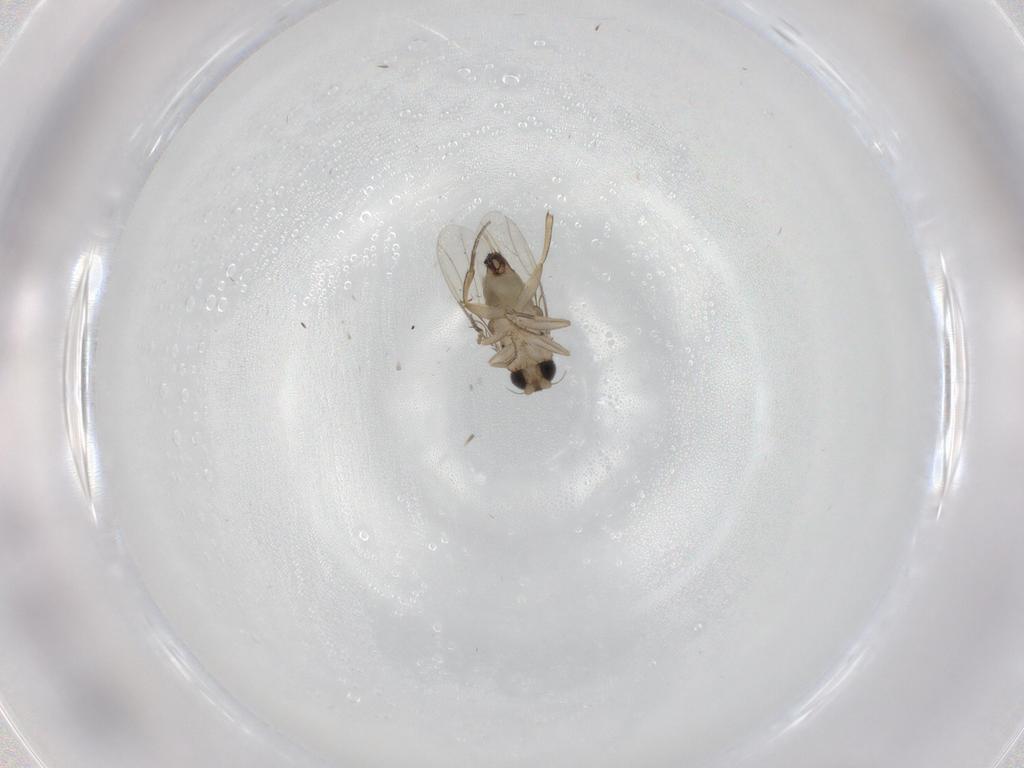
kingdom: Animalia
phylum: Arthropoda
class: Insecta
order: Diptera
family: Phoridae
